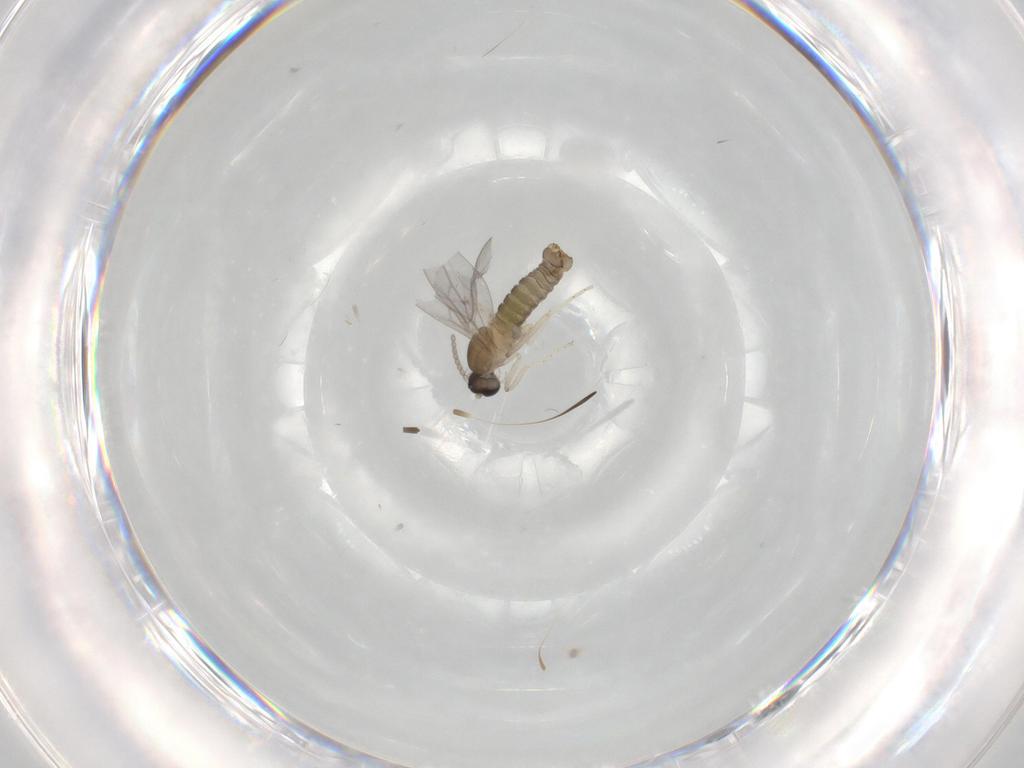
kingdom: Animalia
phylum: Arthropoda
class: Insecta
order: Diptera
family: Cecidomyiidae
